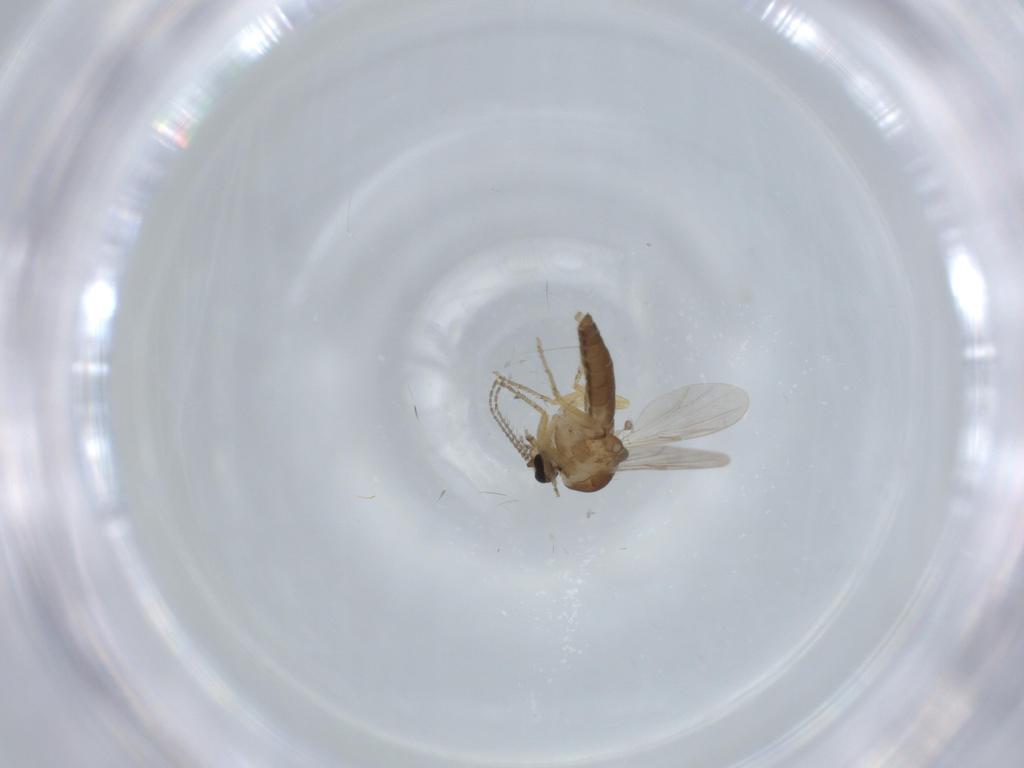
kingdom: Animalia
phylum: Arthropoda
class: Insecta
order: Diptera
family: Ceratopogonidae
